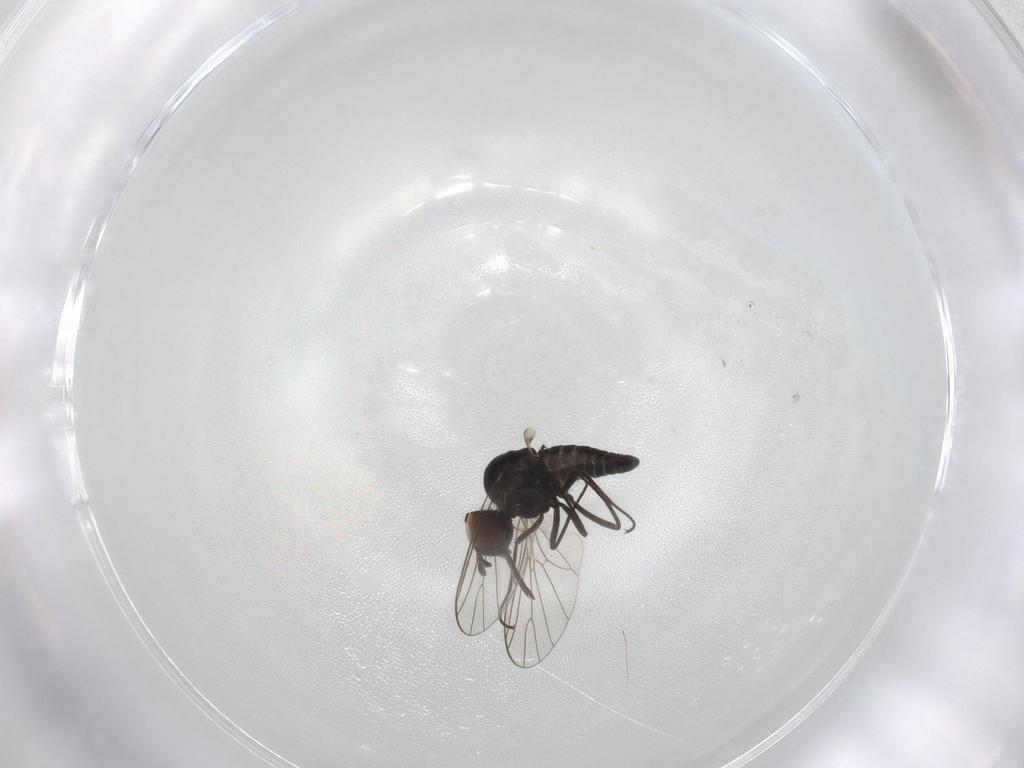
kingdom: Animalia
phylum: Arthropoda
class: Insecta
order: Diptera
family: Bombyliidae
